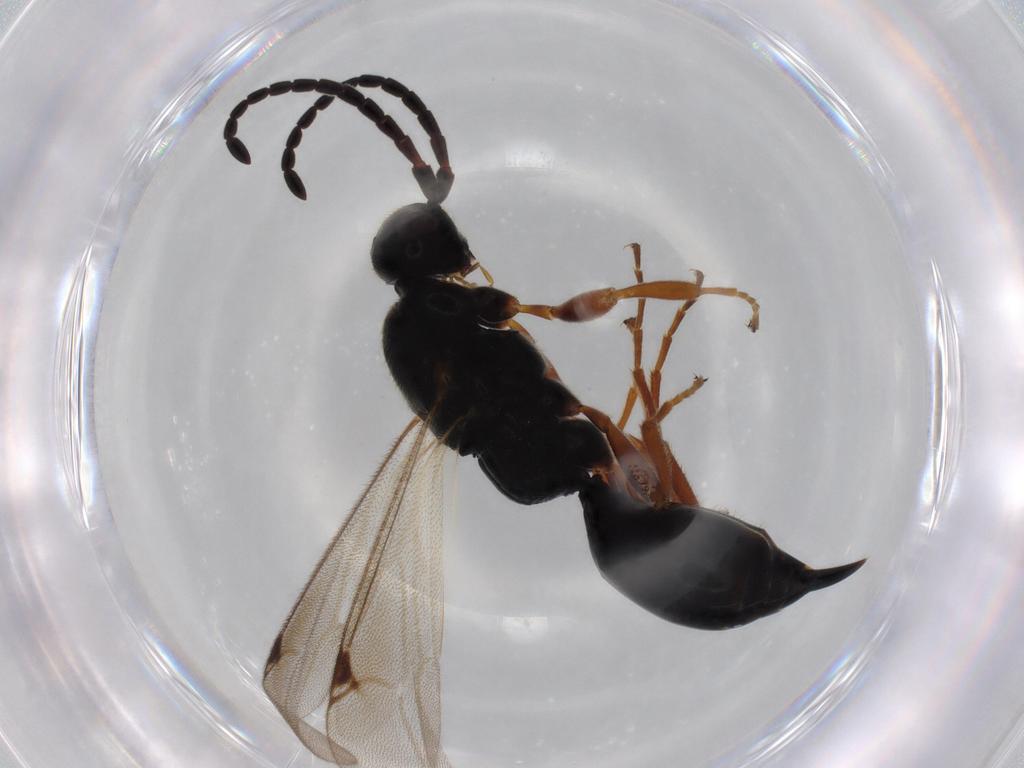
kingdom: Animalia
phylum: Arthropoda
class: Insecta
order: Hymenoptera
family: Proctotrupidae
